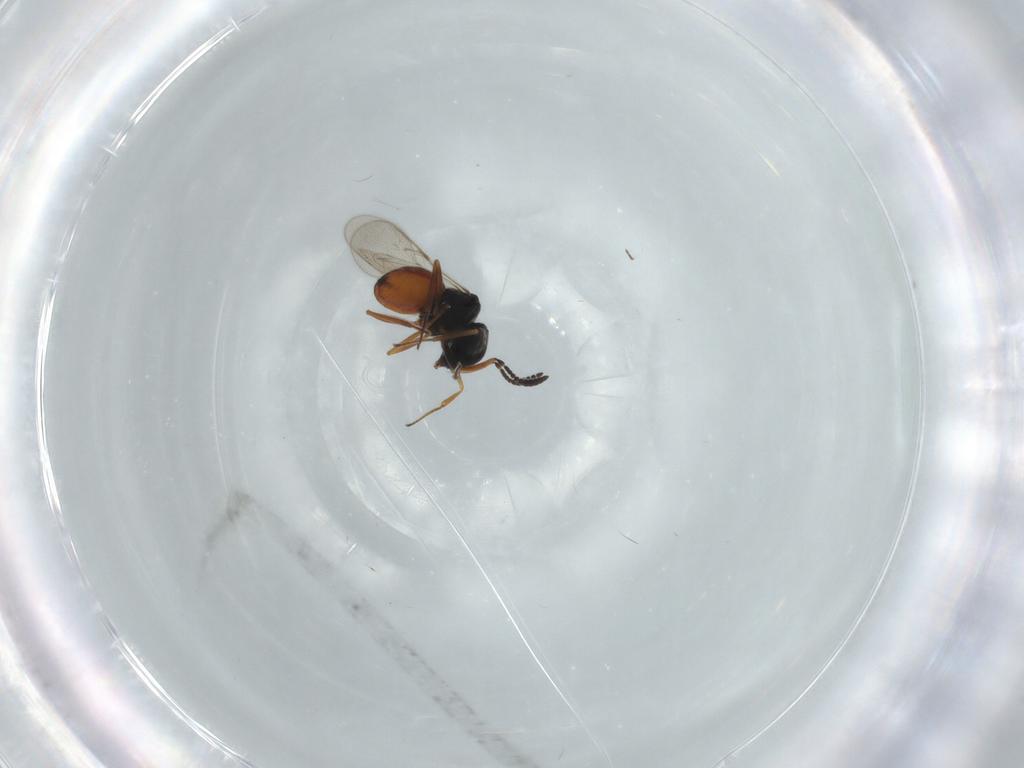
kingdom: Animalia
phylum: Arthropoda
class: Insecta
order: Hymenoptera
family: Scelionidae
